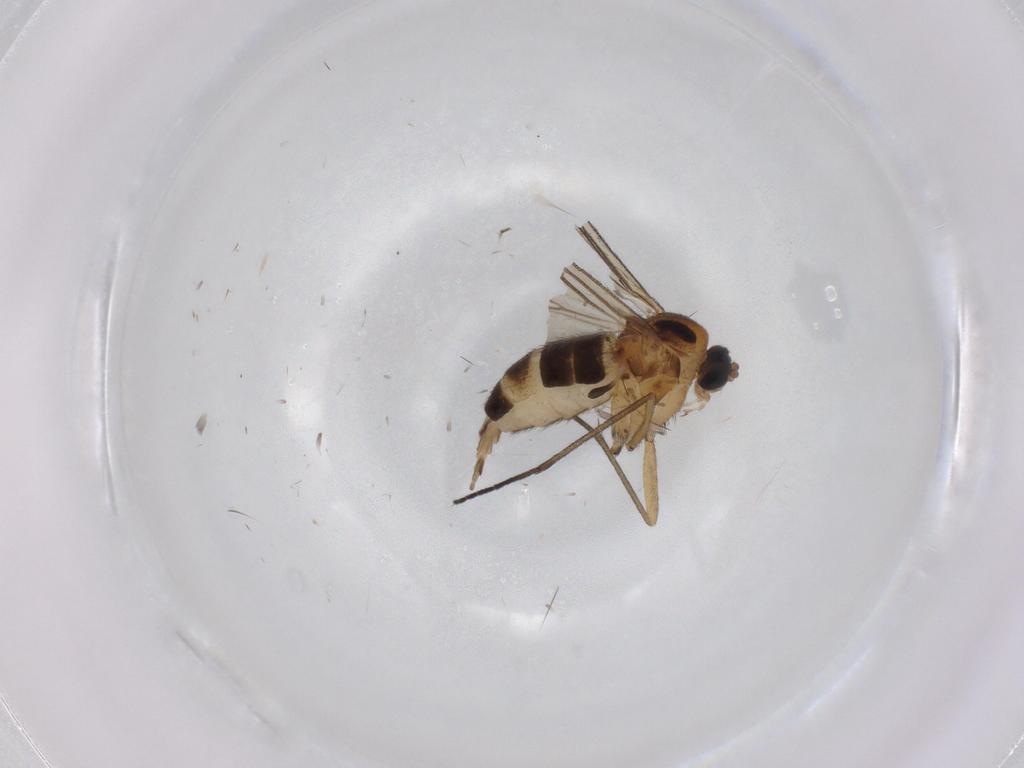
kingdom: Animalia
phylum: Arthropoda
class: Insecta
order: Diptera
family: Sciaridae
